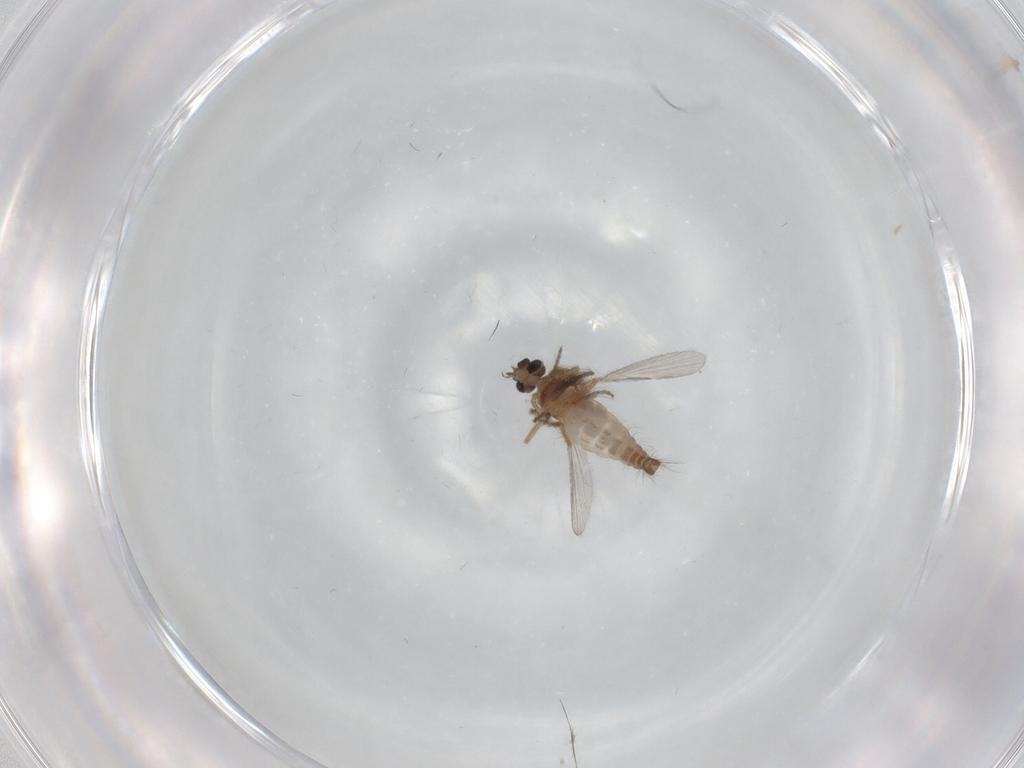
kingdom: Animalia
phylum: Arthropoda
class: Insecta
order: Diptera
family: Ceratopogonidae
